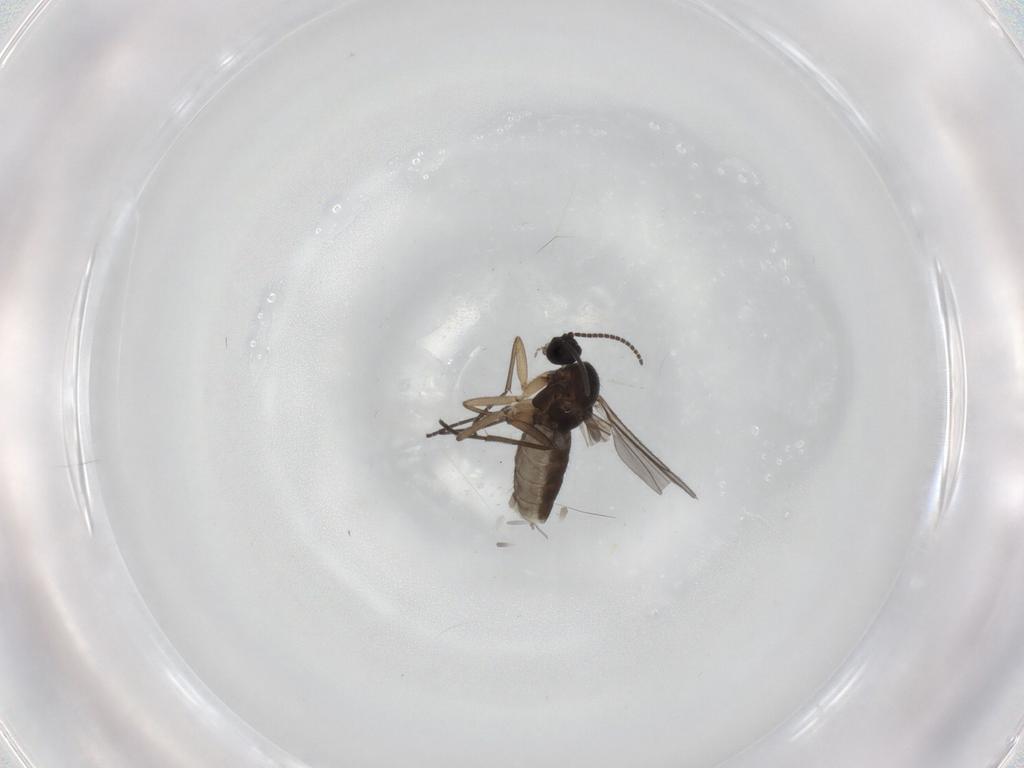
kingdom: Animalia
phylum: Arthropoda
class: Insecta
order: Diptera
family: Sciaridae
